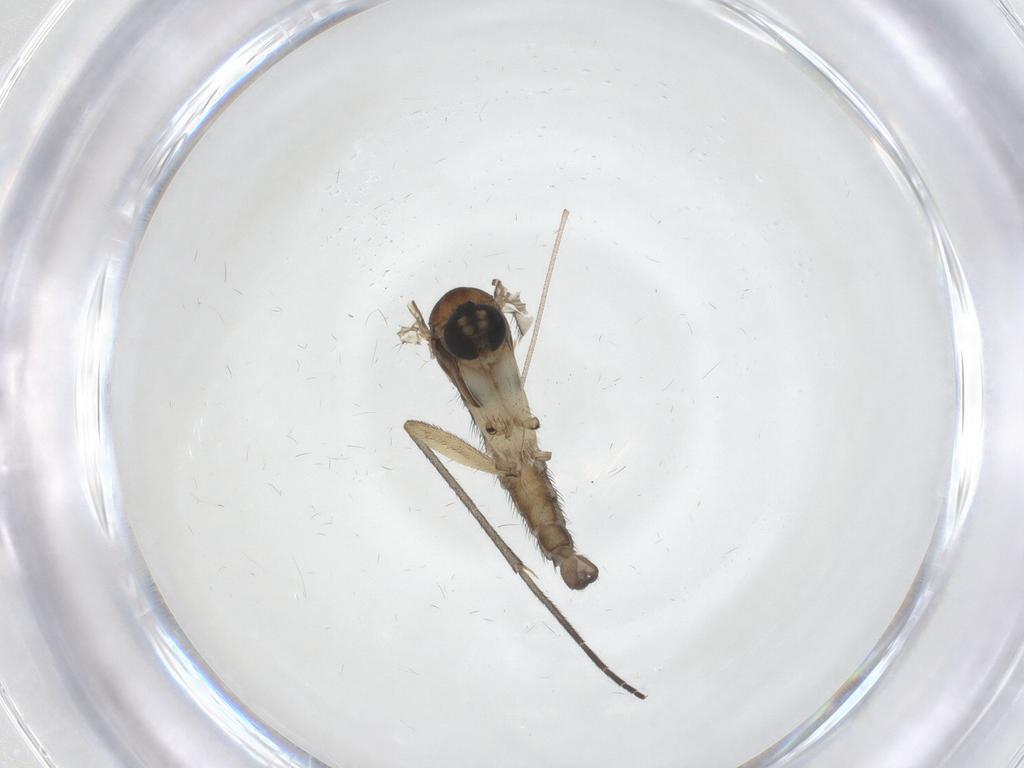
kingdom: Animalia
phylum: Arthropoda
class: Insecta
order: Diptera
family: Sciaridae
